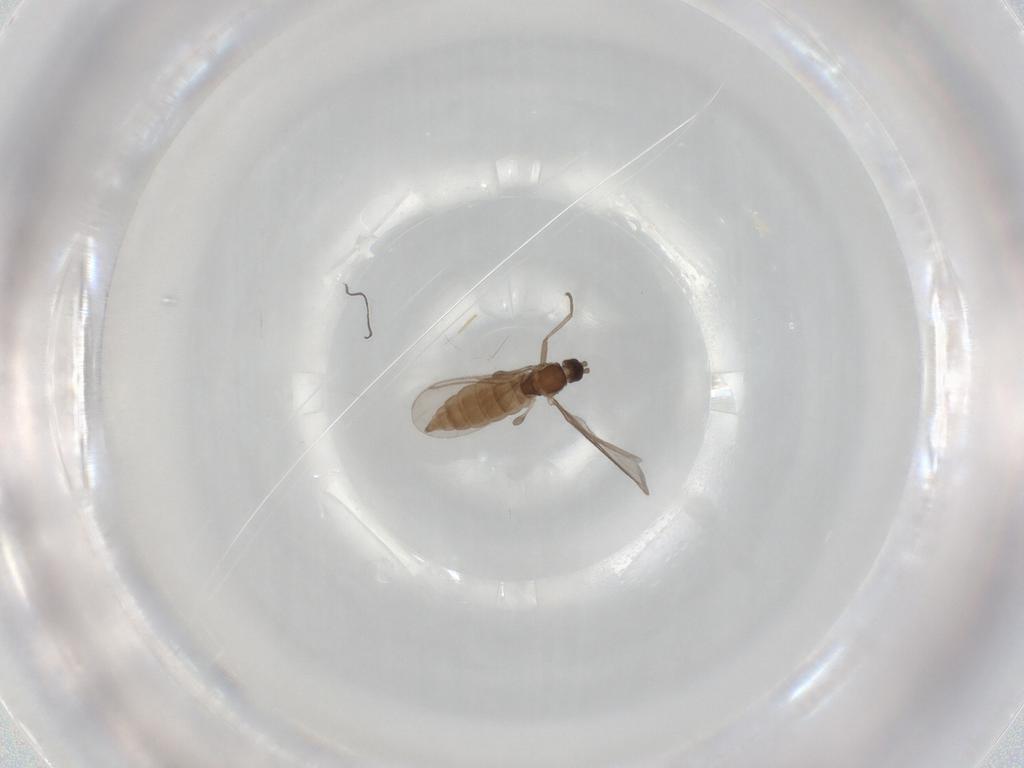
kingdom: Animalia
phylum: Arthropoda
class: Insecta
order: Diptera
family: Sciaridae
